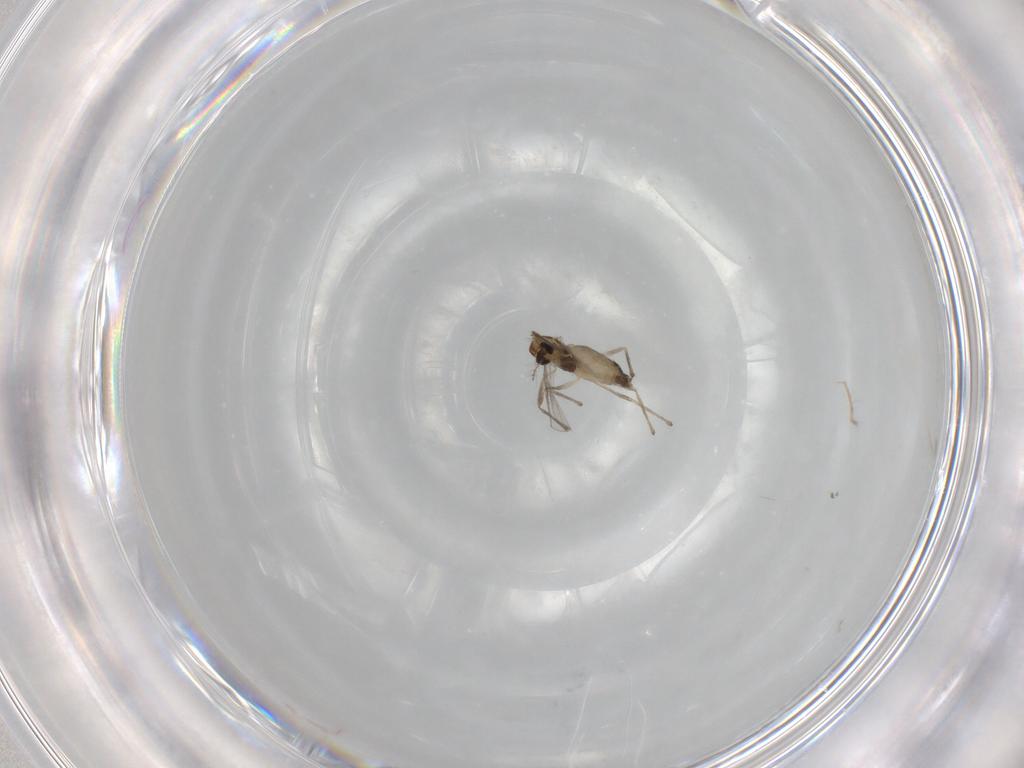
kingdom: Animalia
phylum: Arthropoda
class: Insecta
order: Diptera
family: Chironomidae
